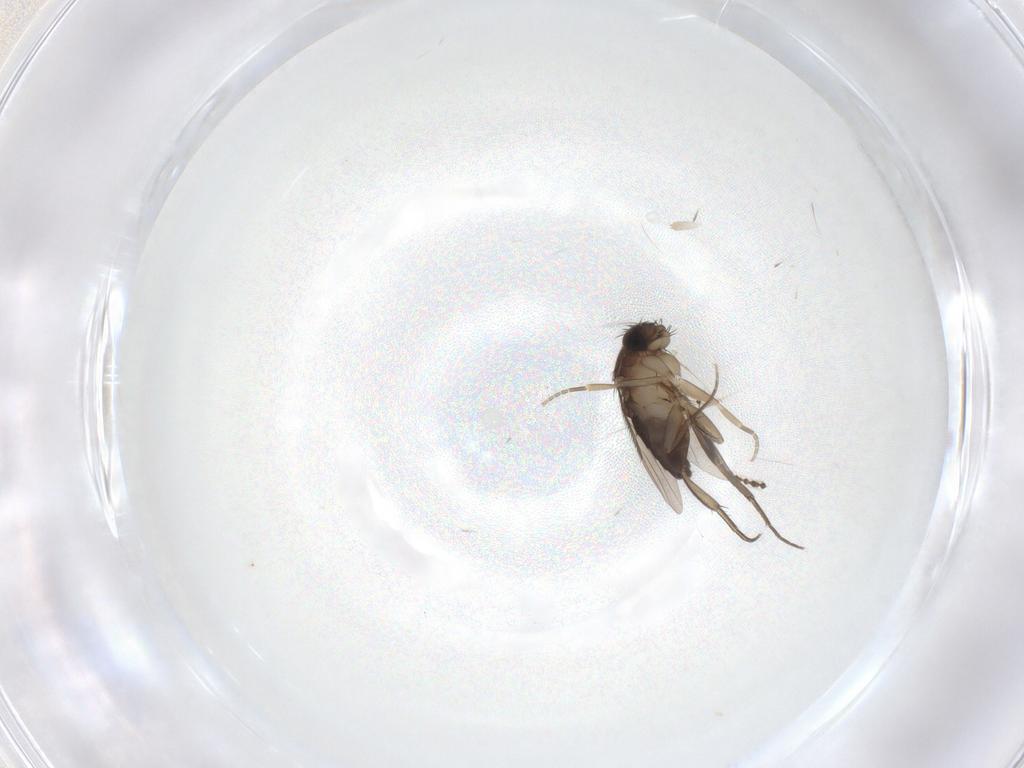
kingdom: Animalia
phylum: Arthropoda
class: Insecta
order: Diptera
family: Phoridae
